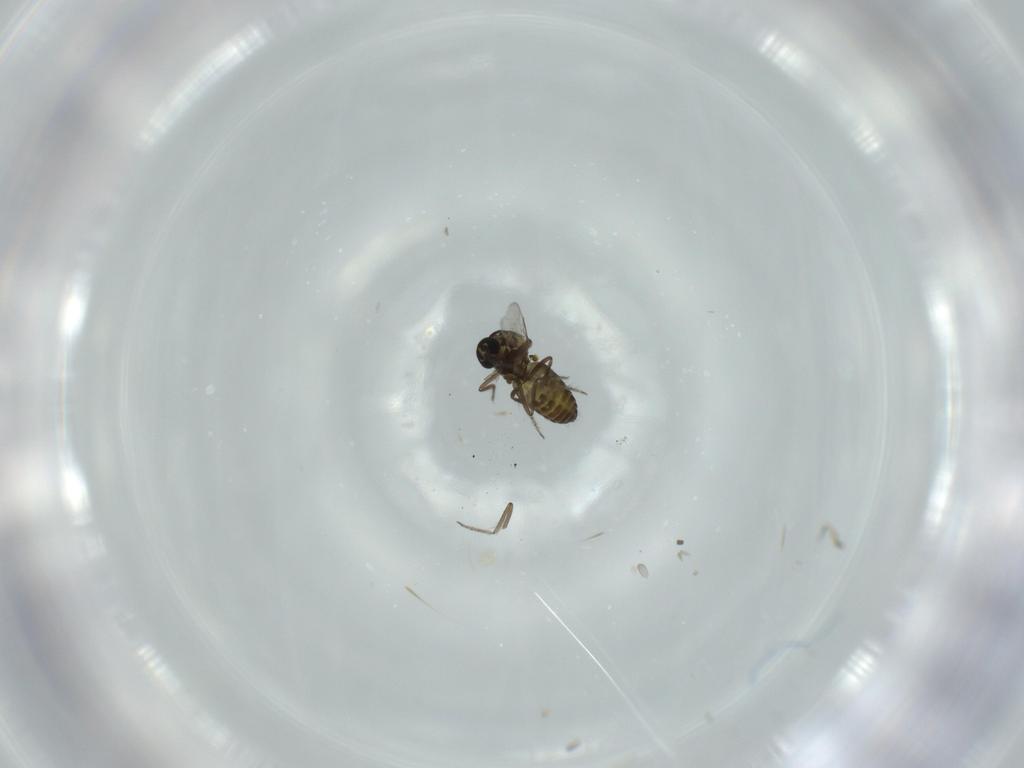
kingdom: Animalia
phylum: Arthropoda
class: Insecta
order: Diptera
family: Ceratopogonidae
